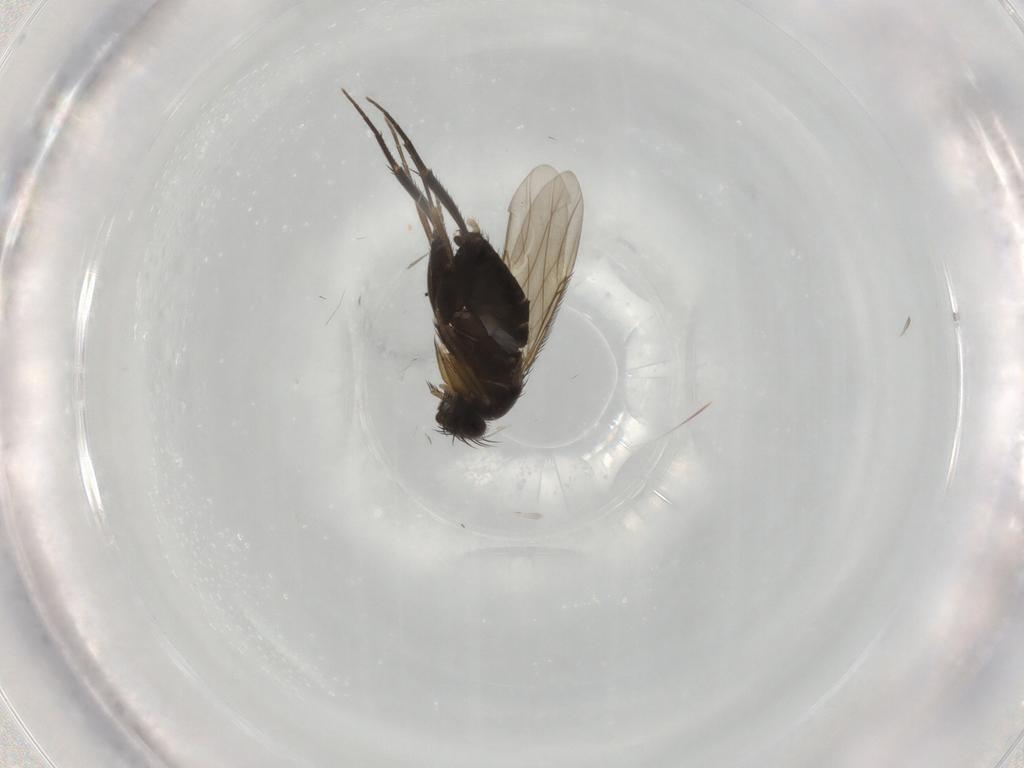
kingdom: Animalia
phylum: Arthropoda
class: Insecta
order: Diptera
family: Phoridae
